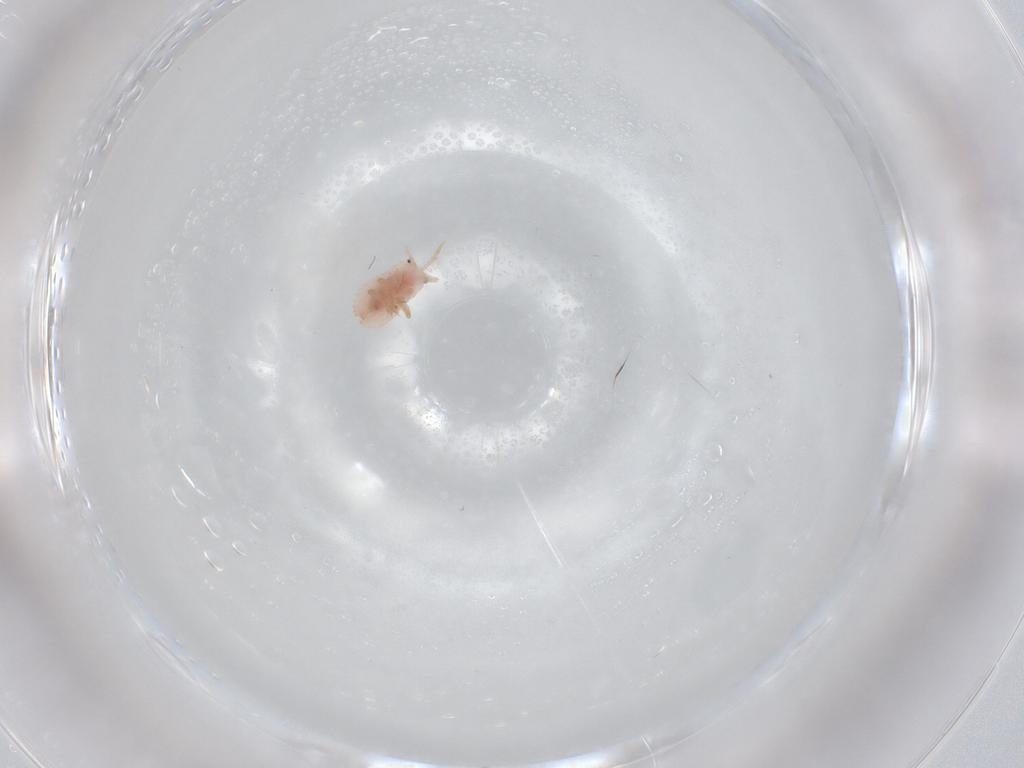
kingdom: Animalia
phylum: Arthropoda
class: Insecta
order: Hemiptera
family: Coccoidea_incertae_sedis
